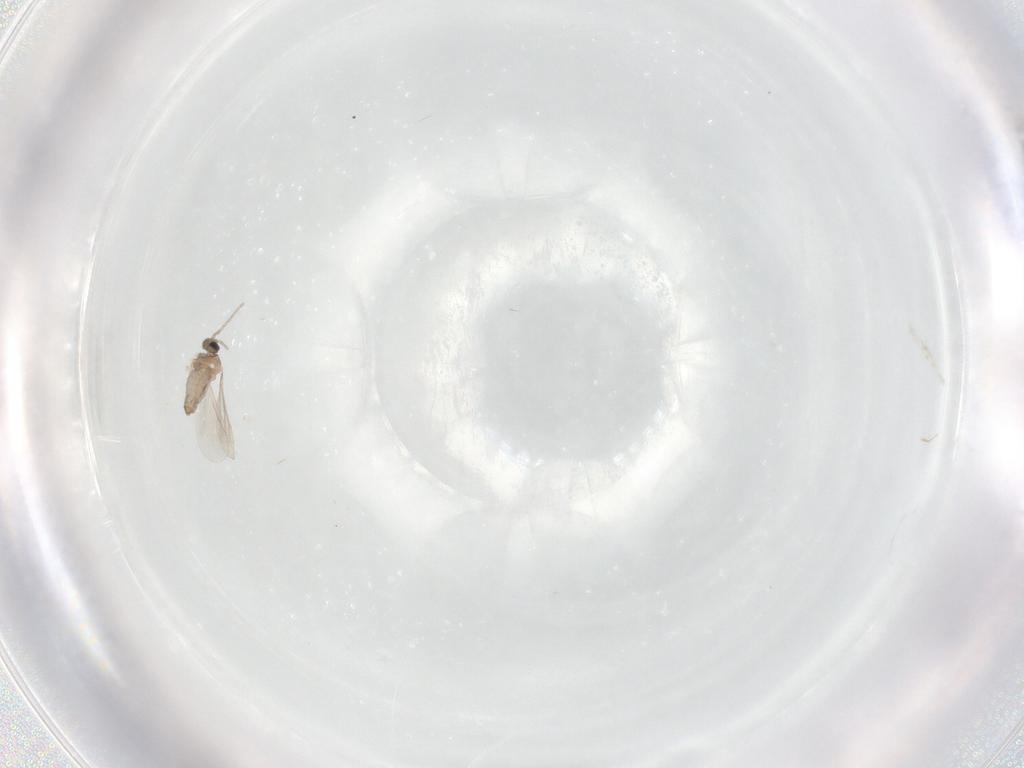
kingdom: Animalia
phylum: Arthropoda
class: Insecta
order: Diptera
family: Cecidomyiidae
